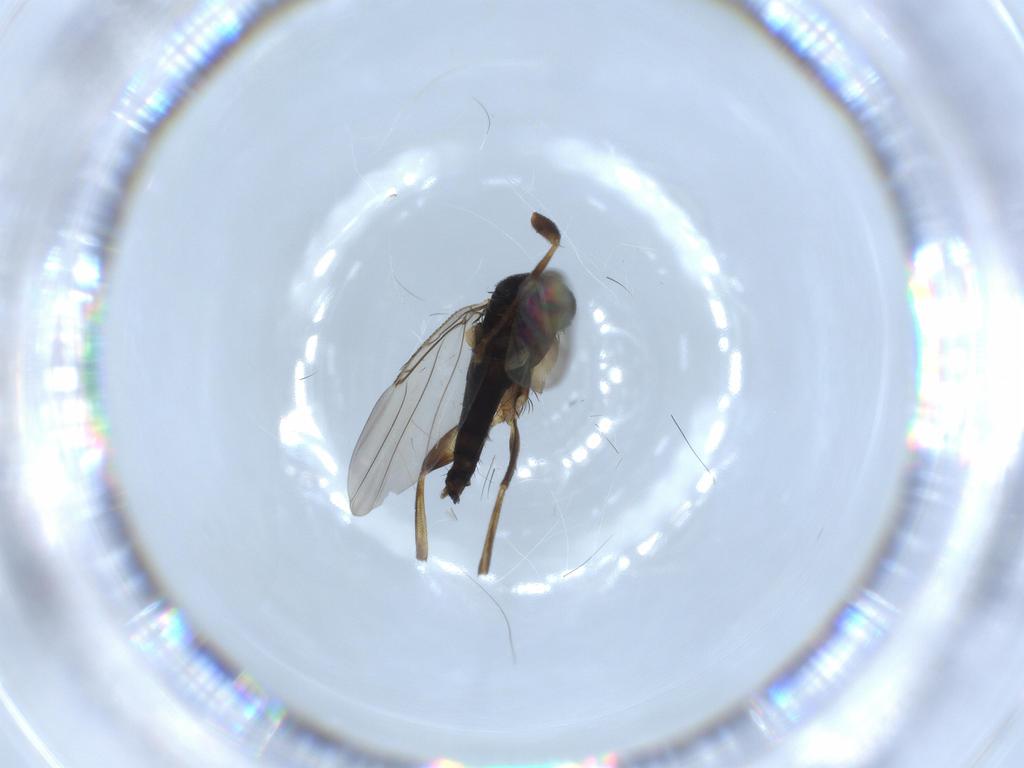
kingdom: Animalia
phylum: Arthropoda
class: Insecta
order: Diptera
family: Phoridae
